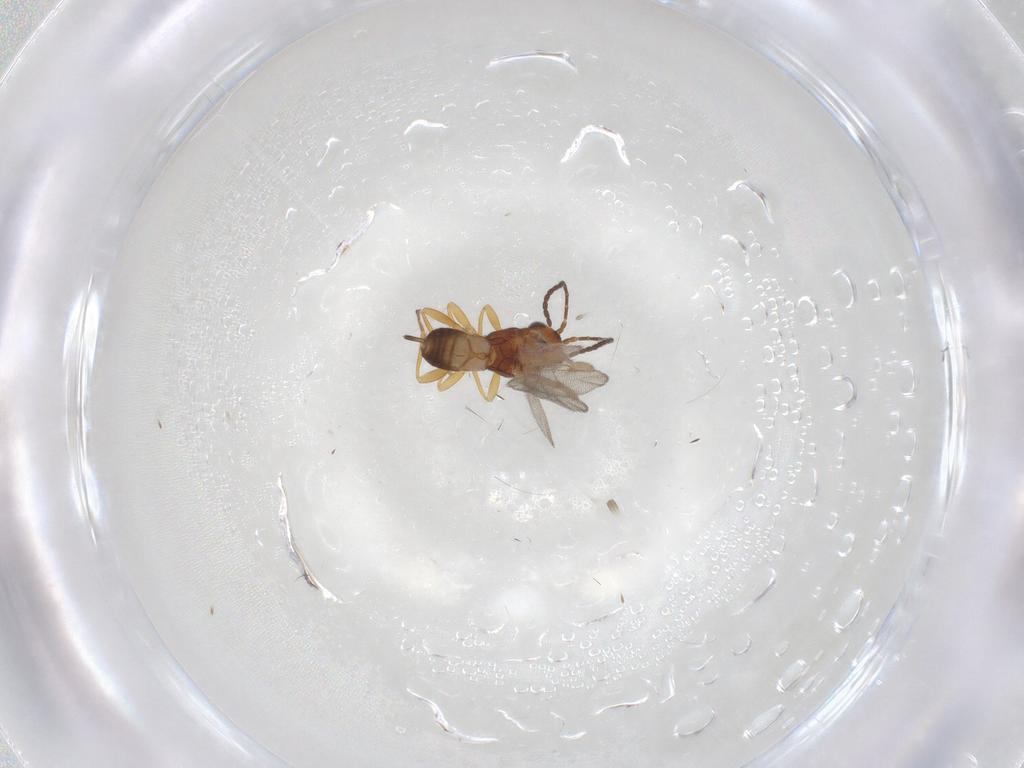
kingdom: Animalia
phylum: Arthropoda
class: Insecta
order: Hymenoptera
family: Braconidae
